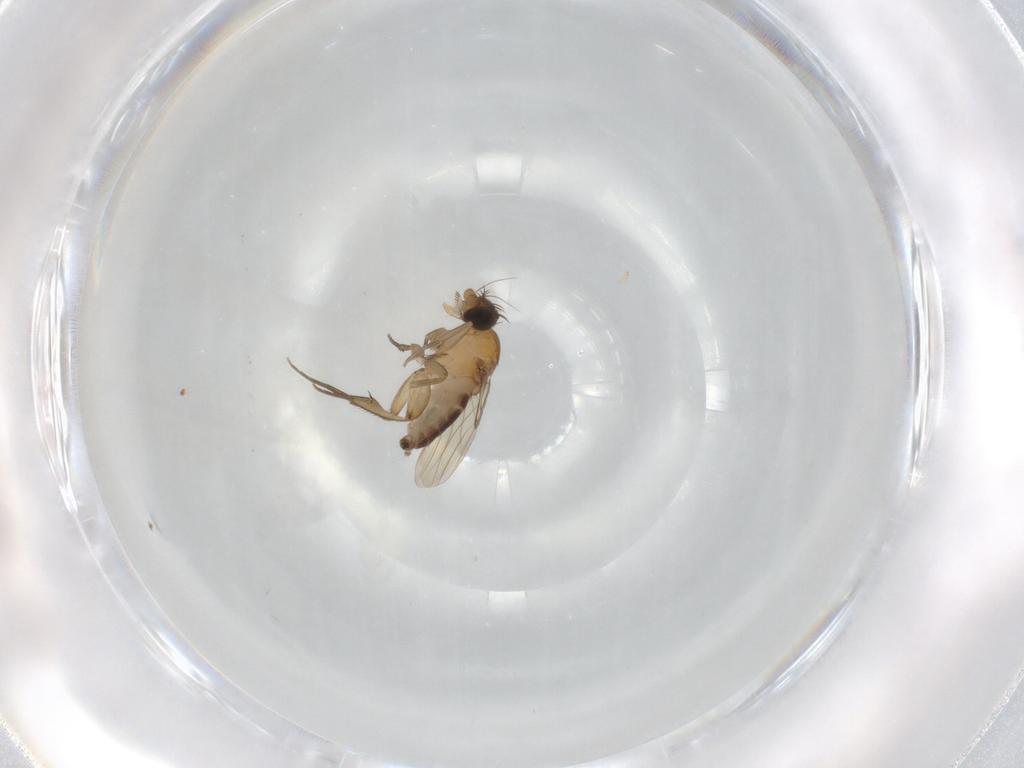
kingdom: Animalia
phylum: Arthropoda
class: Insecta
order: Diptera
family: Phoridae
